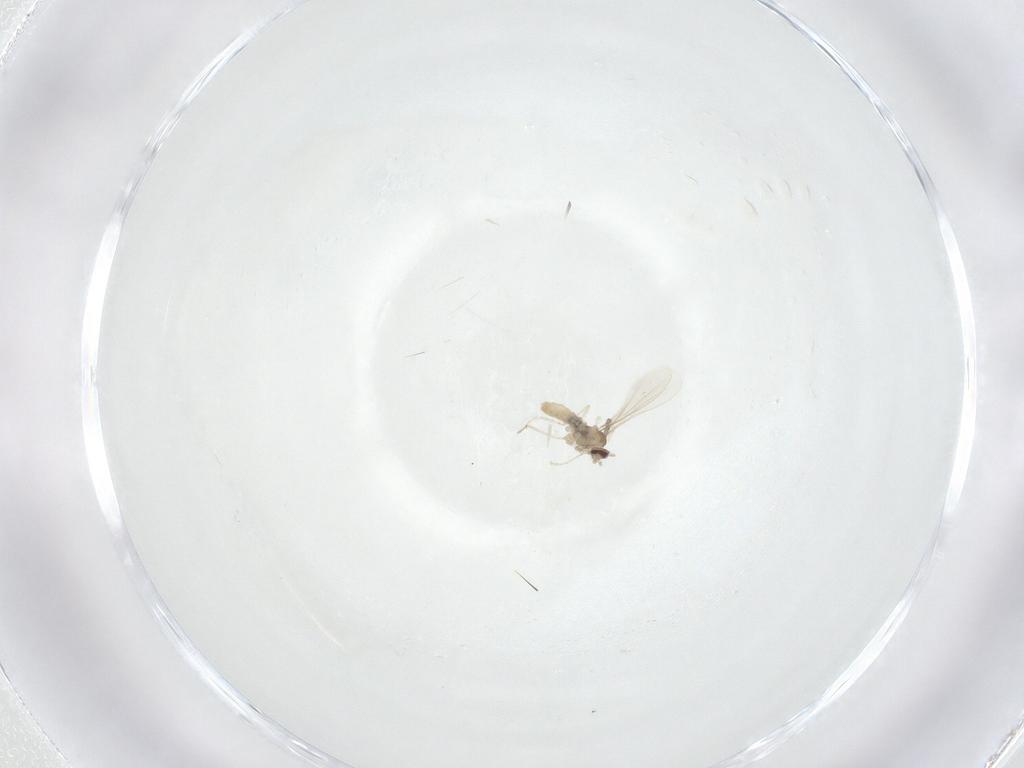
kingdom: Animalia
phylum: Arthropoda
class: Insecta
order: Diptera
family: Cecidomyiidae
